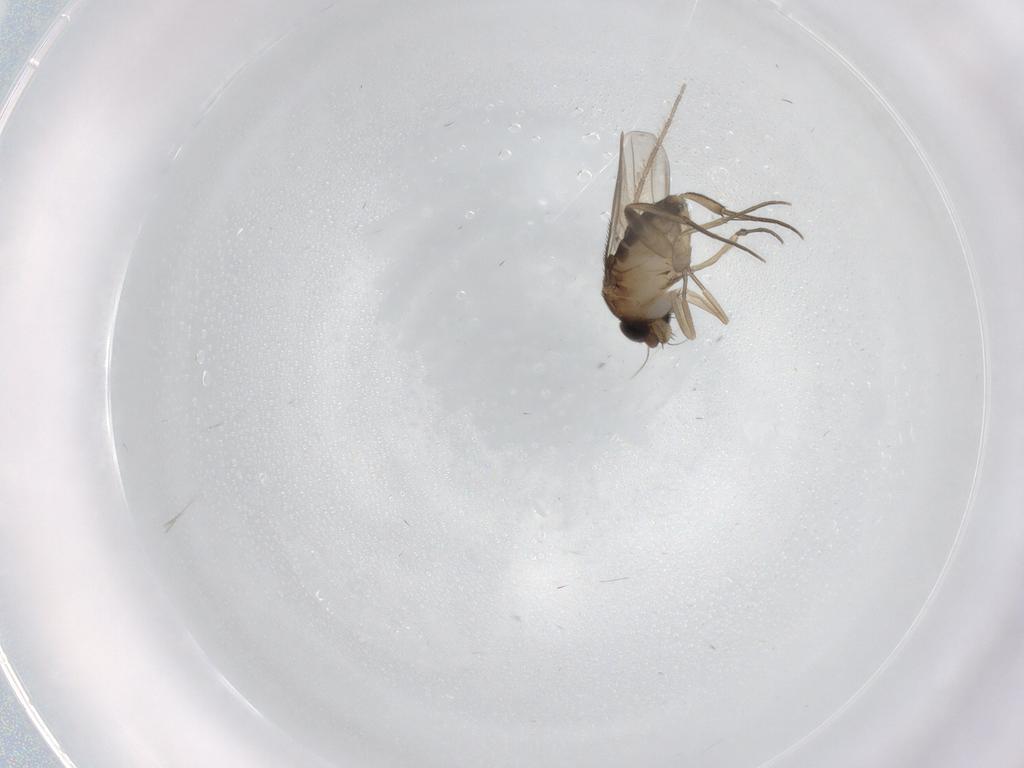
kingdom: Animalia
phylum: Arthropoda
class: Insecta
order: Diptera
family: Phoridae
